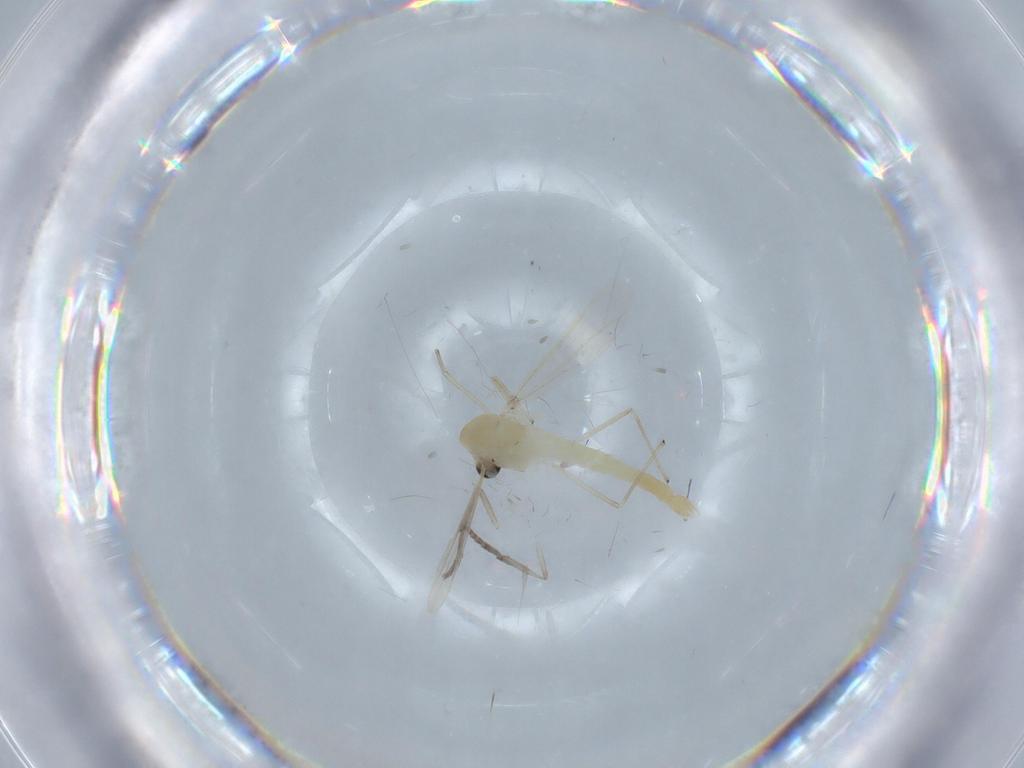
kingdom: Animalia
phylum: Arthropoda
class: Insecta
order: Diptera
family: Chironomidae
